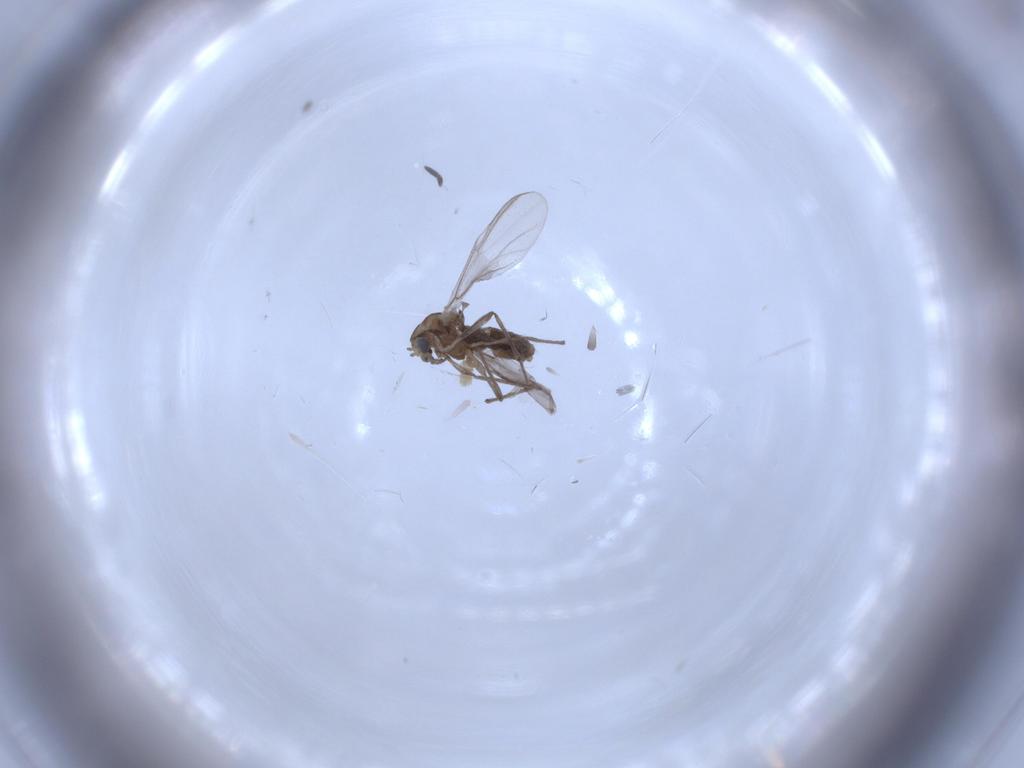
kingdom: Animalia
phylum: Arthropoda
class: Insecta
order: Diptera
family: Chironomidae
